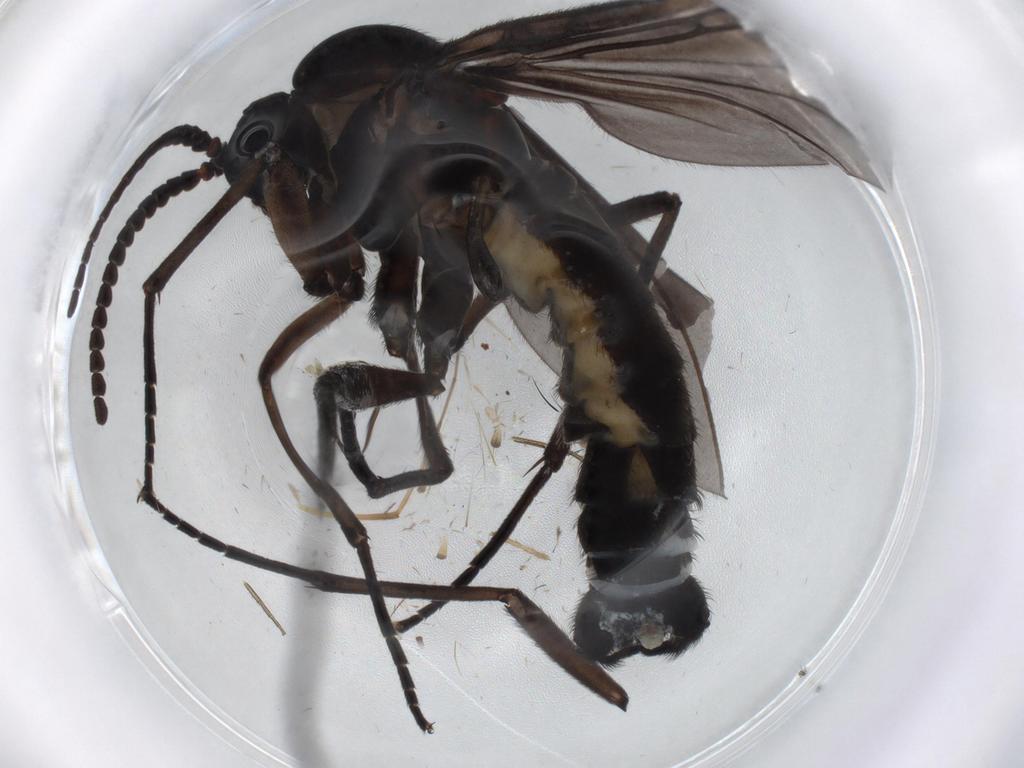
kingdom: Animalia
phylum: Arthropoda
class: Insecta
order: Diptera
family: Sciaridae
